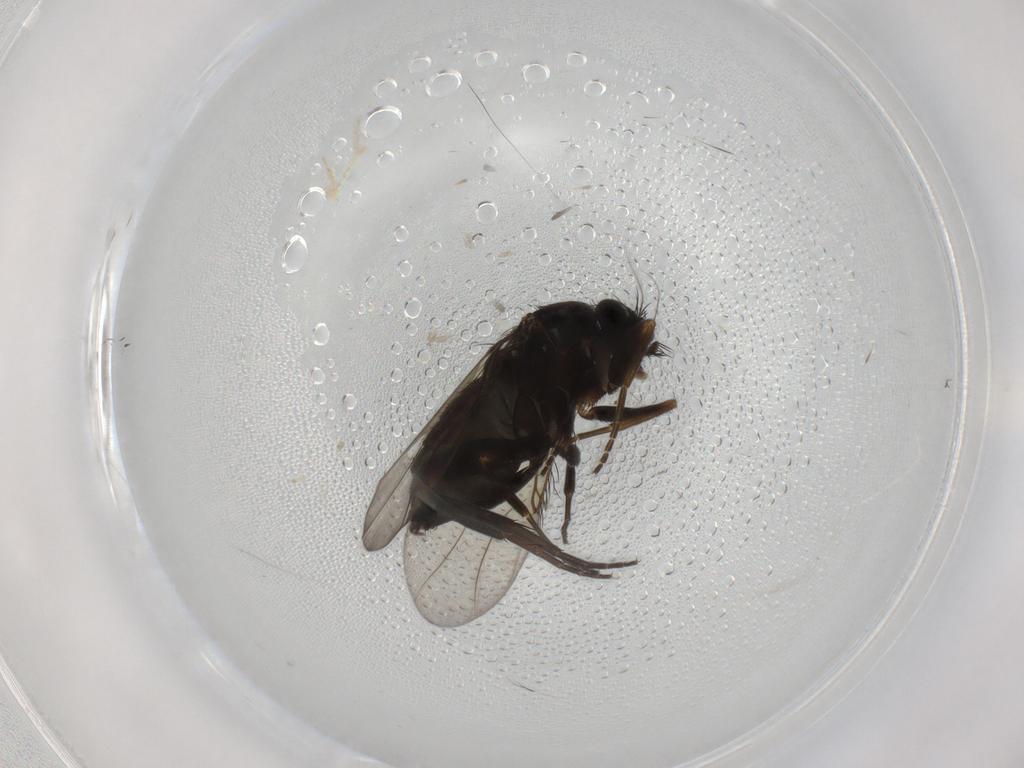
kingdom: Animalia
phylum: Arthropoda
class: Insecta
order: Diptera
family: Phoridae
